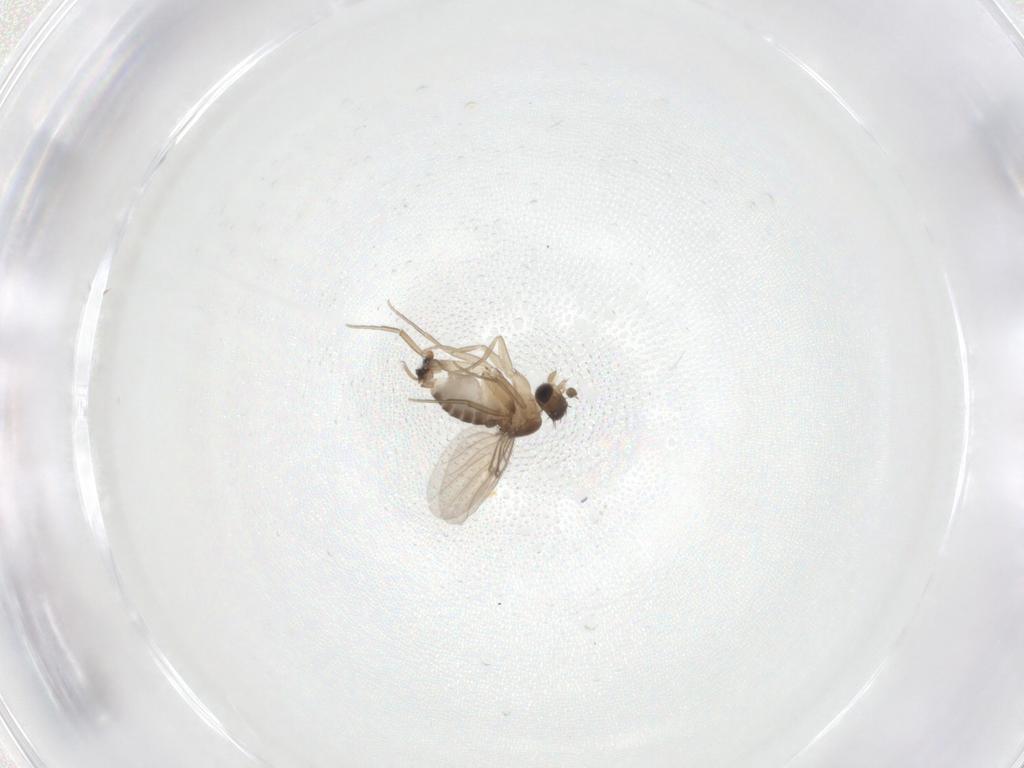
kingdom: Animalia
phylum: Arthropoda
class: Insecta
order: Diptera
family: Phoridae
